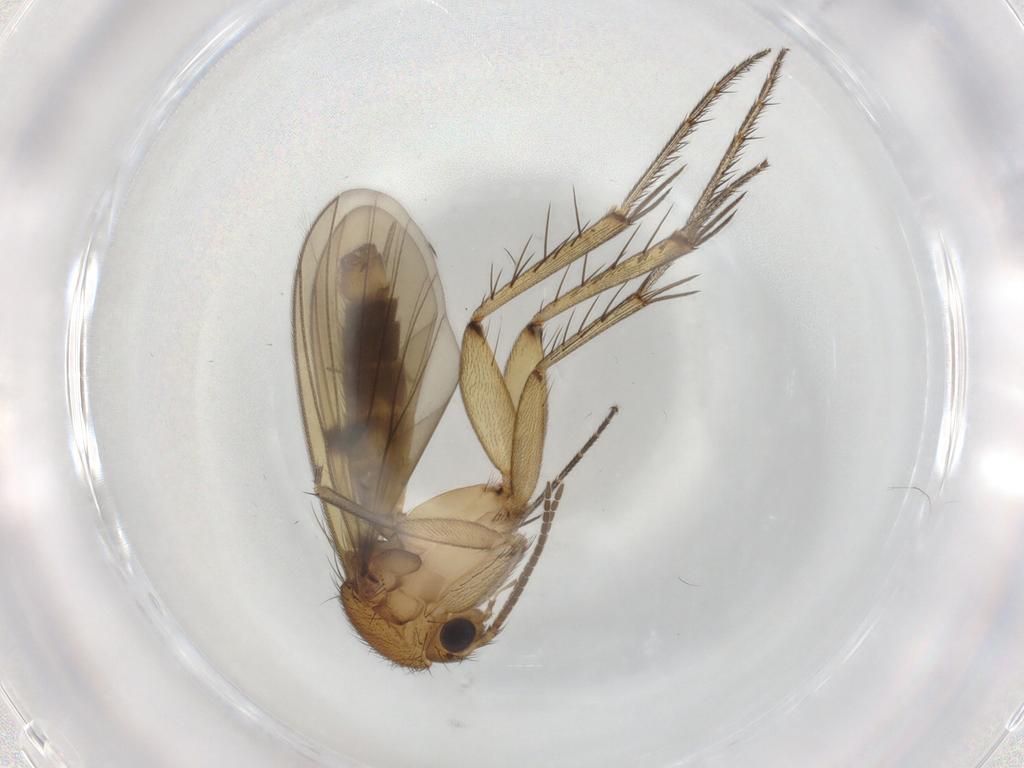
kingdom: Animalia
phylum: Arthropoda
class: Insecta
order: Diptera
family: Mycetophilidae
